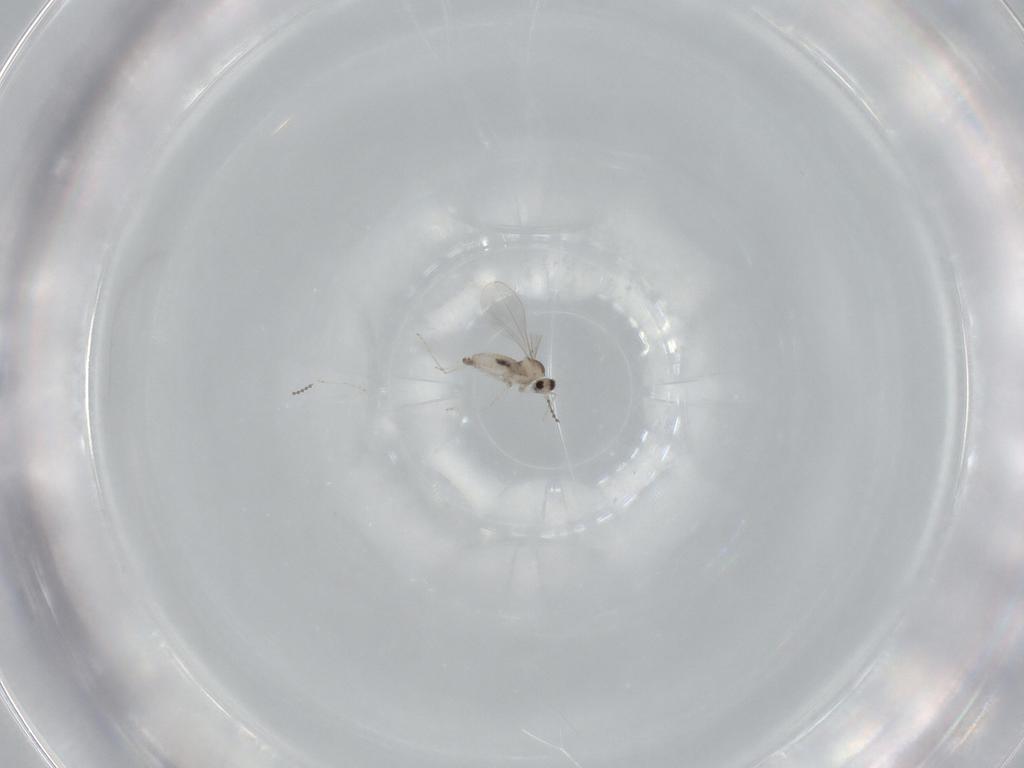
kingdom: Animalia
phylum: Arthropoda
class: Insecta
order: Diptera
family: Cecidomyiidae
